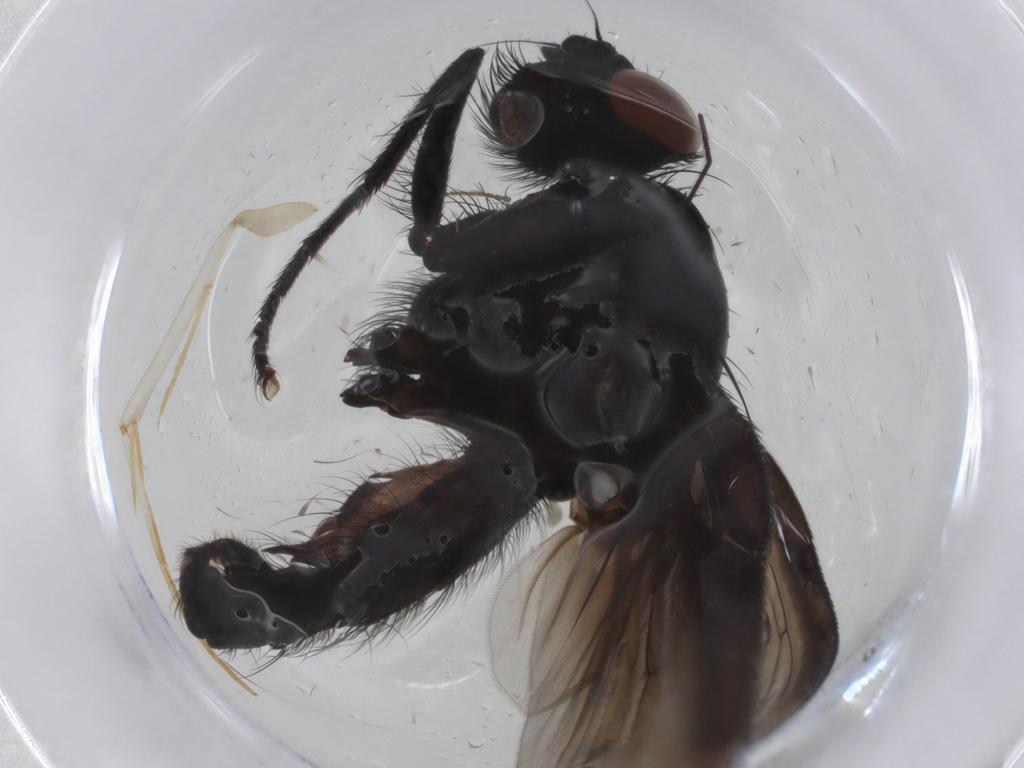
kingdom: Animalia
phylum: Arthropoda
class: Insecta
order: Diptera
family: Anthomyiidae
